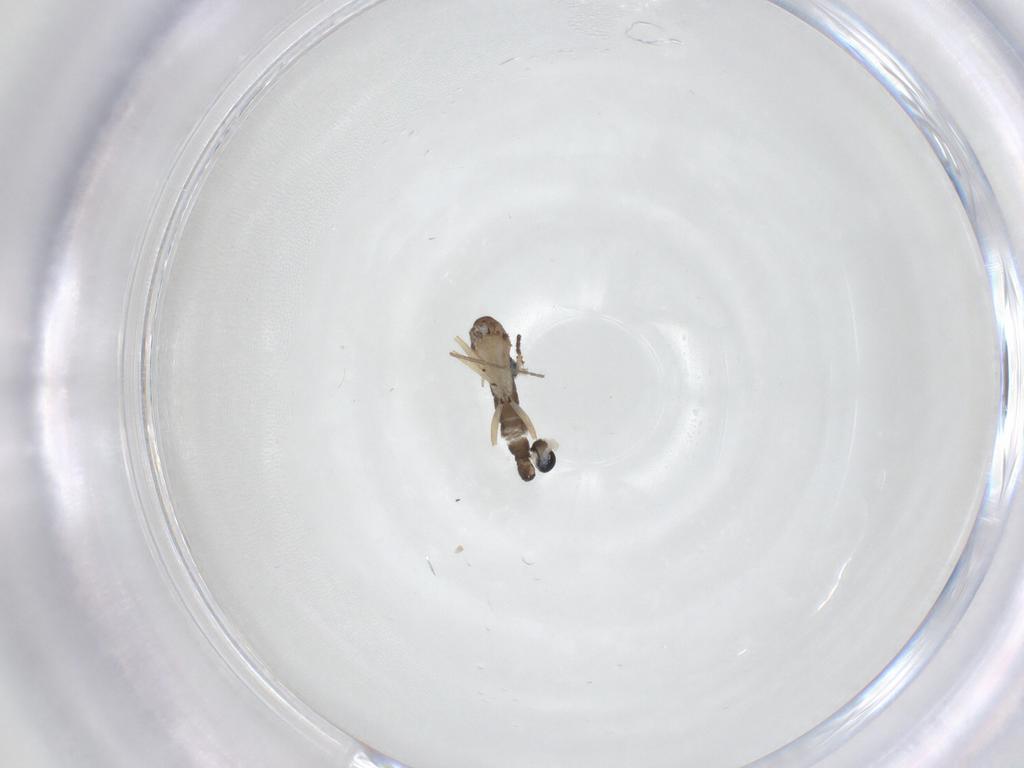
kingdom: Animalia
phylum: Arthropoda
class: Insecta
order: Diptera
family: Sciaridae
